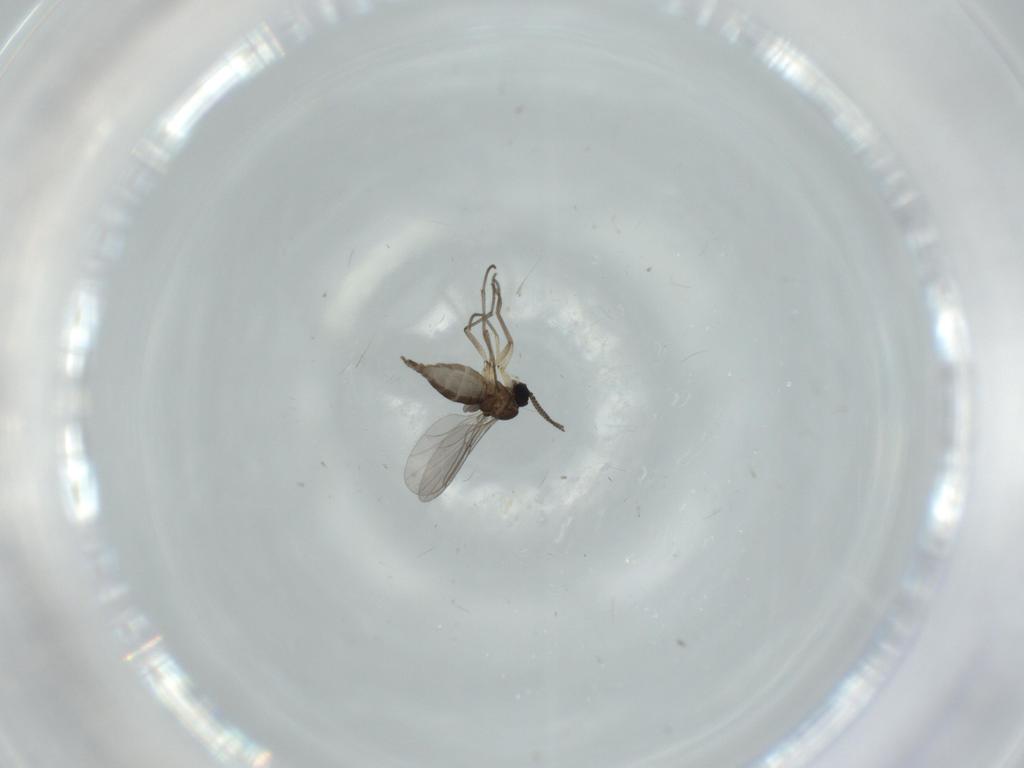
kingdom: Animalia
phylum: Arthropoda
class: Insecta
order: Diptera
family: Sciaridae
